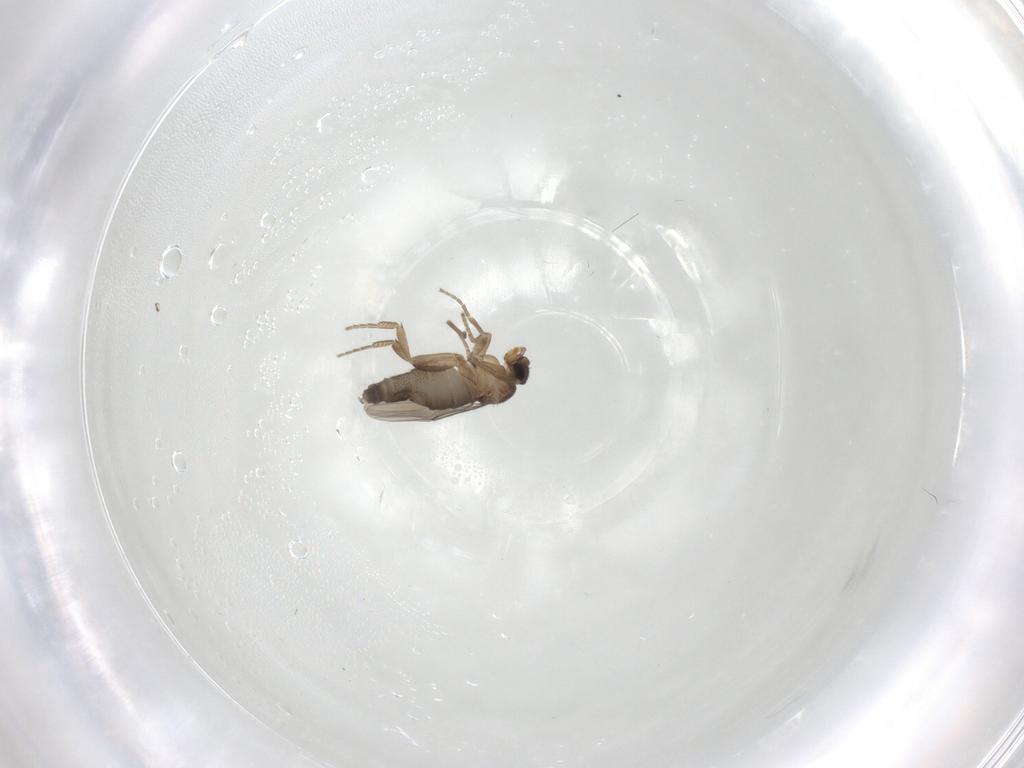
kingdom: Animalia
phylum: Arthropoda
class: Insecta
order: Diptera
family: Phoridae
